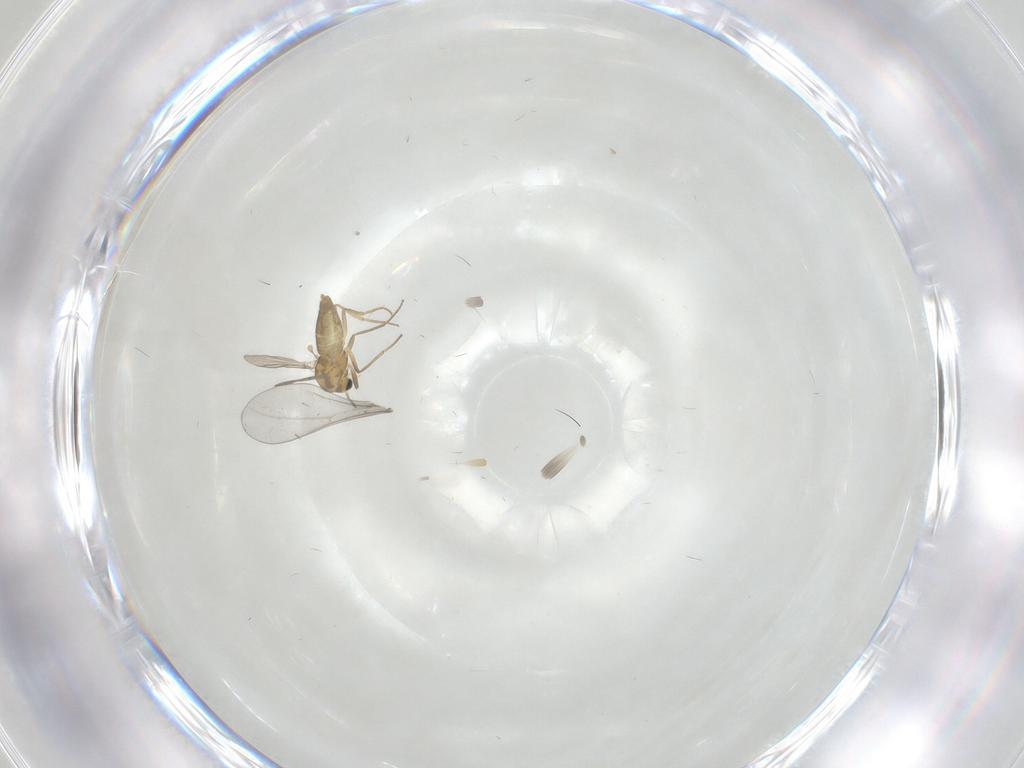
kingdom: Animalia
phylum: Arthropoda
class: Insecta
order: Diptera
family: Chironomidae
